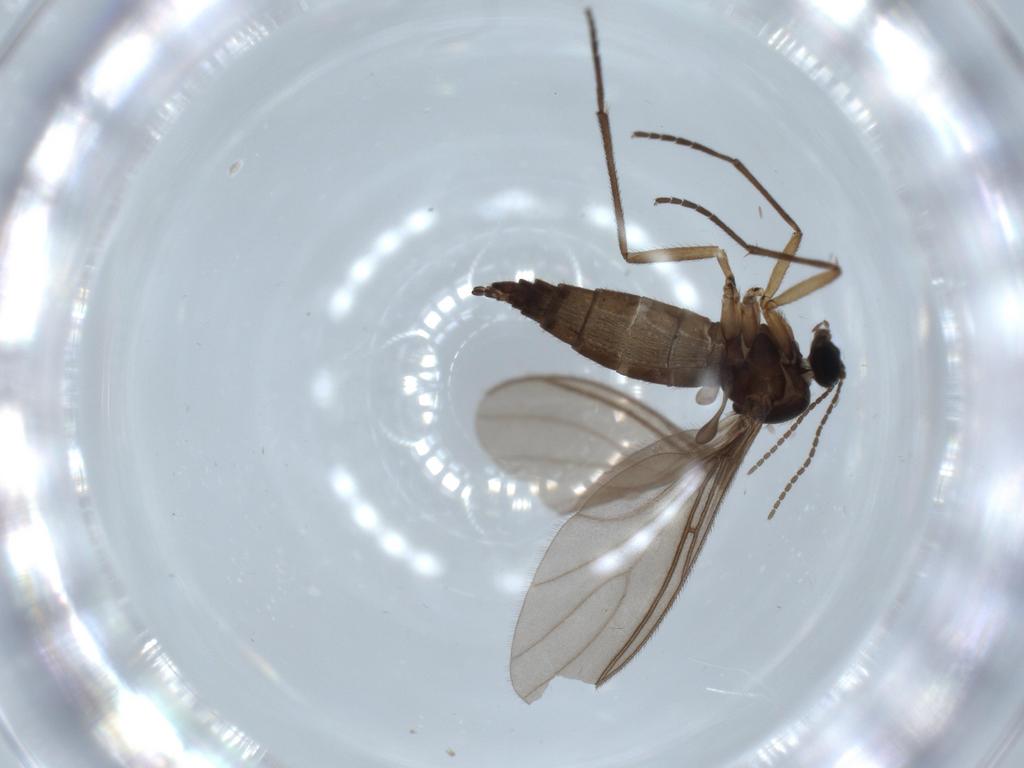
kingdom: Animalia
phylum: Arthropoda
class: Insecta
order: Diptera
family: Sciaridae
